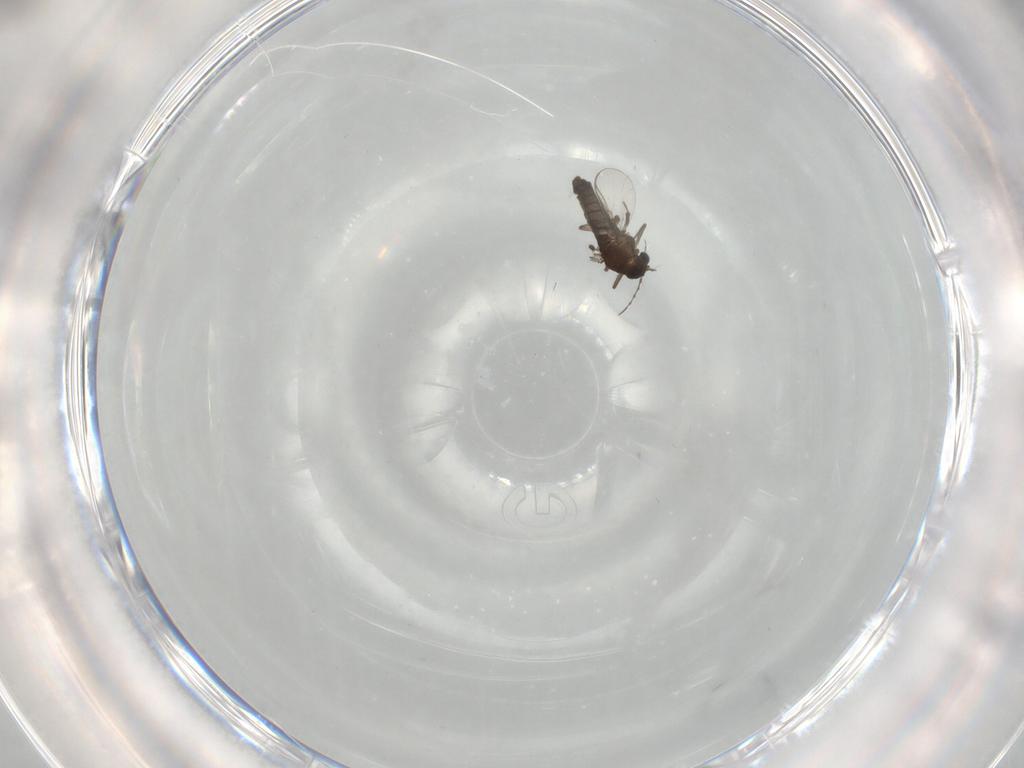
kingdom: Animalia
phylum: Arthropoda
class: Insecta
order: Diptera
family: Chironomidae
